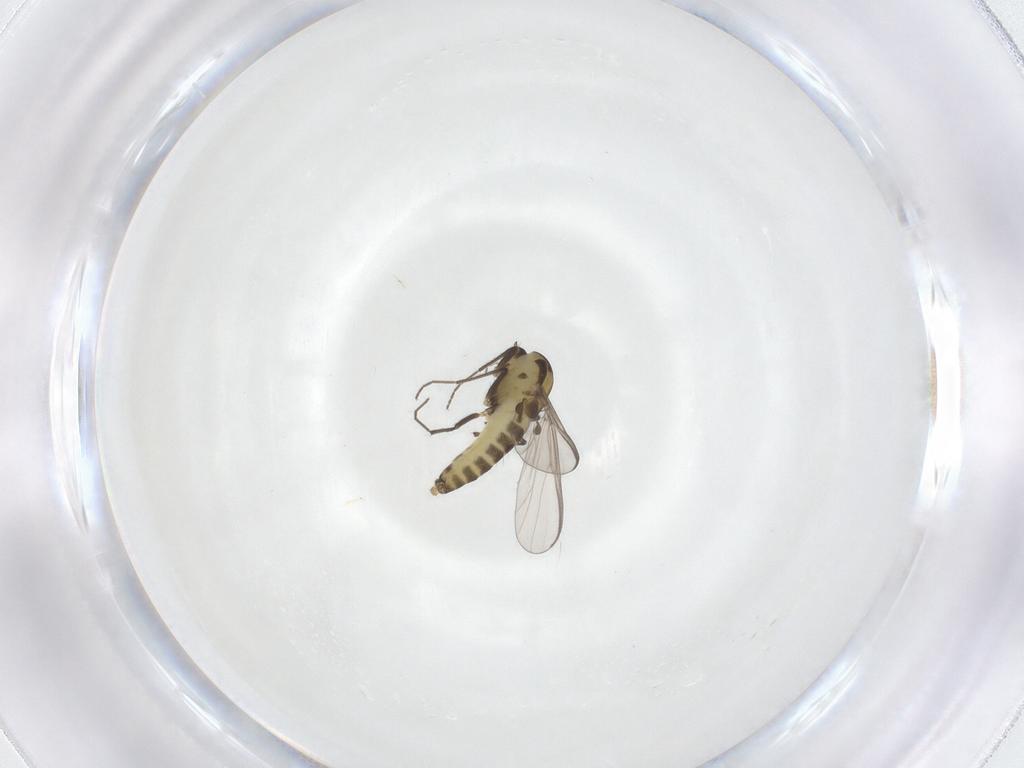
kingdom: Animalia
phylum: Arthropoda
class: Insecta
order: Diptera
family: Chironomidae
